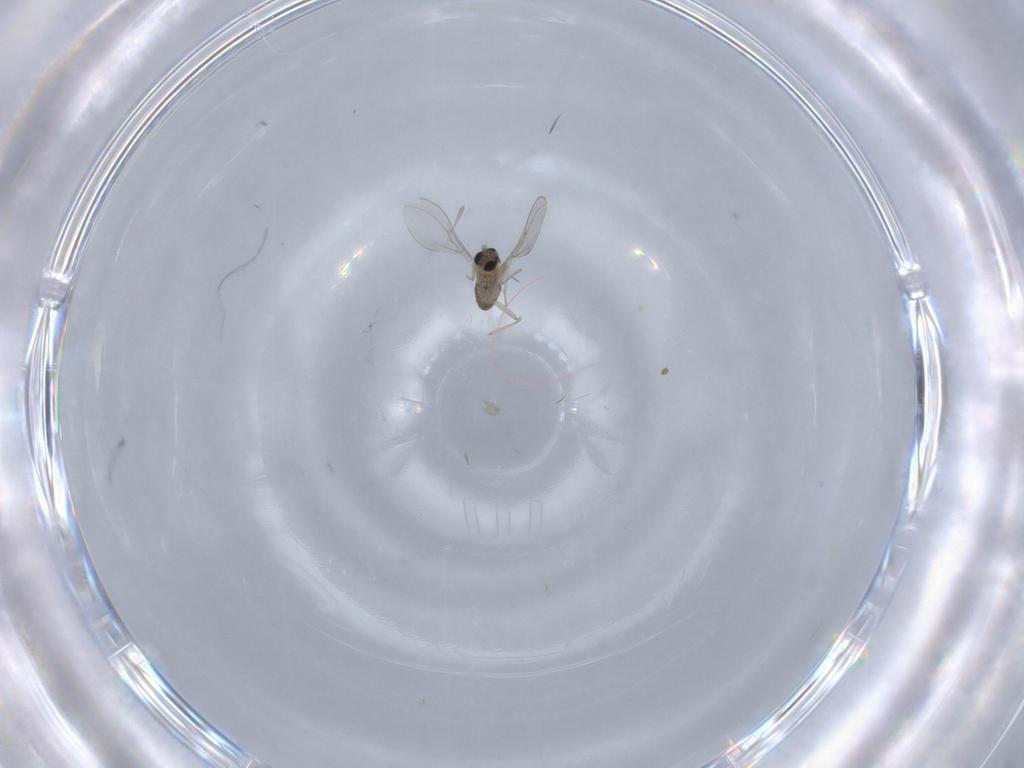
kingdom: Animalia
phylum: Arthropoda
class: Insecta
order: Diptera
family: Cecidomyiidae
